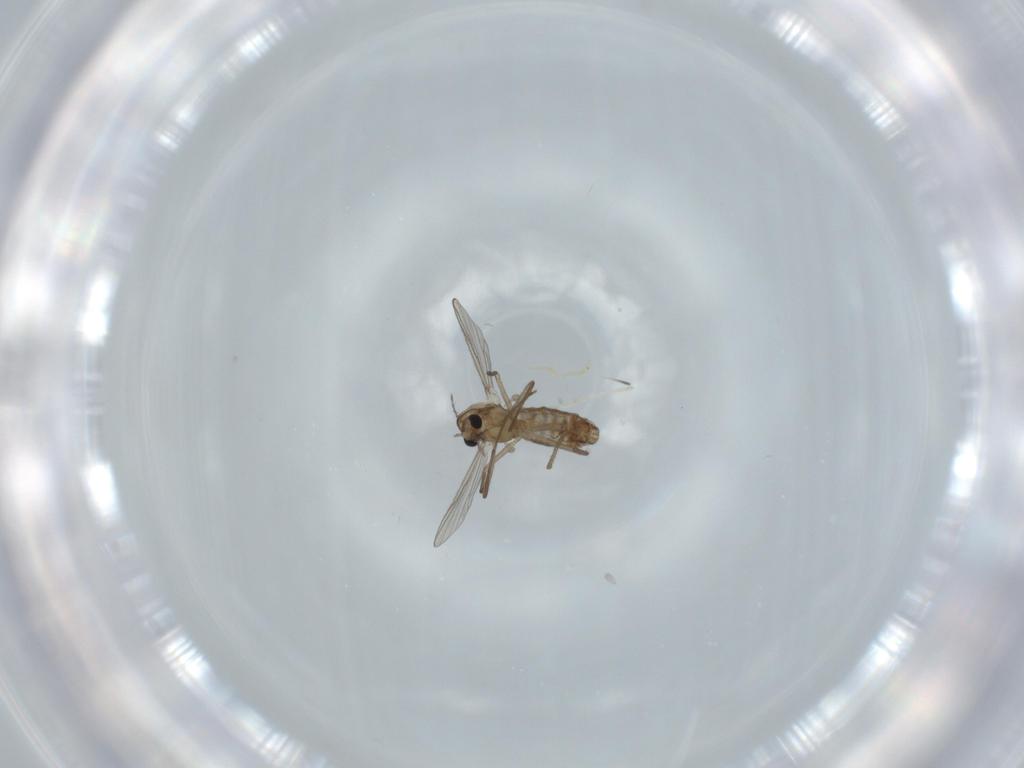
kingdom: Animalia
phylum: Arthropoda
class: Insecta
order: Diptera
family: Chironomidae
